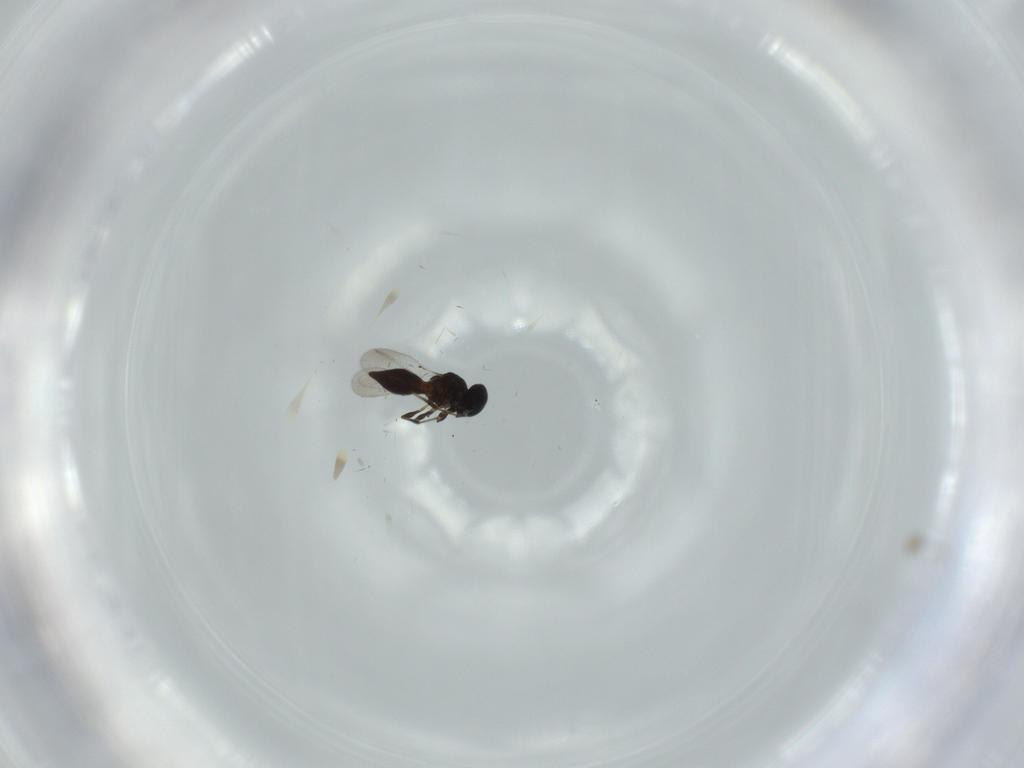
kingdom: Animalia
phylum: Arthropoda
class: Insecta
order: Hymenoptera
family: Platygastridae
